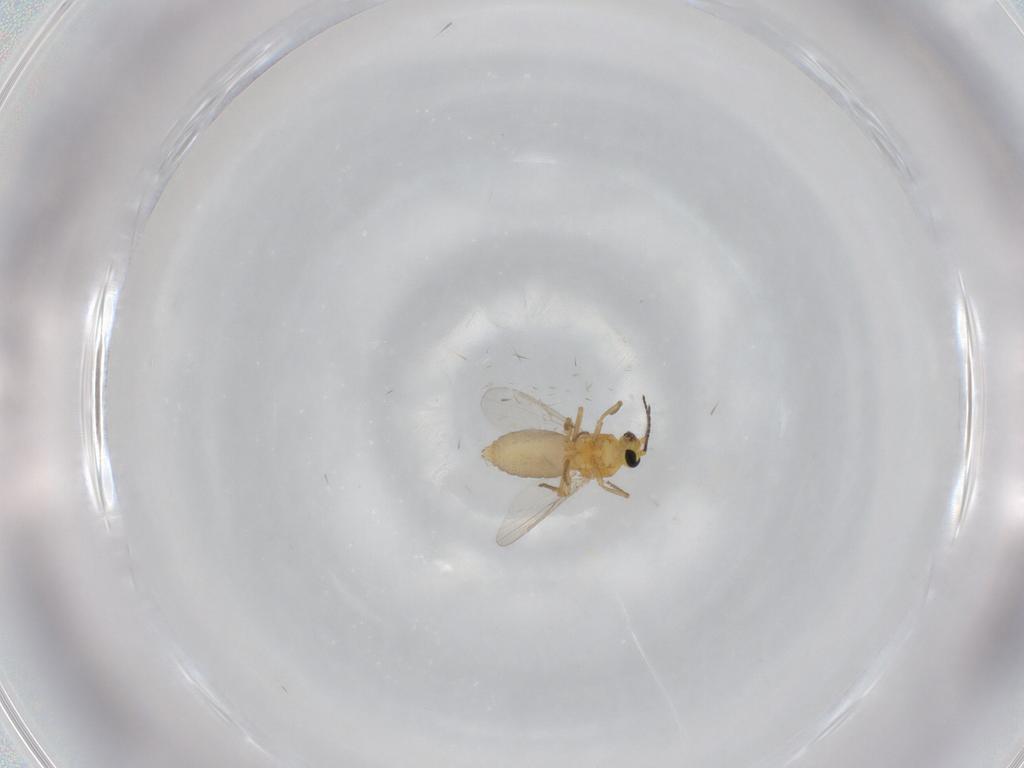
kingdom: Animalia
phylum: Arthropoda
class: Insecta
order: Diptera
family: Ceratopogonidae
